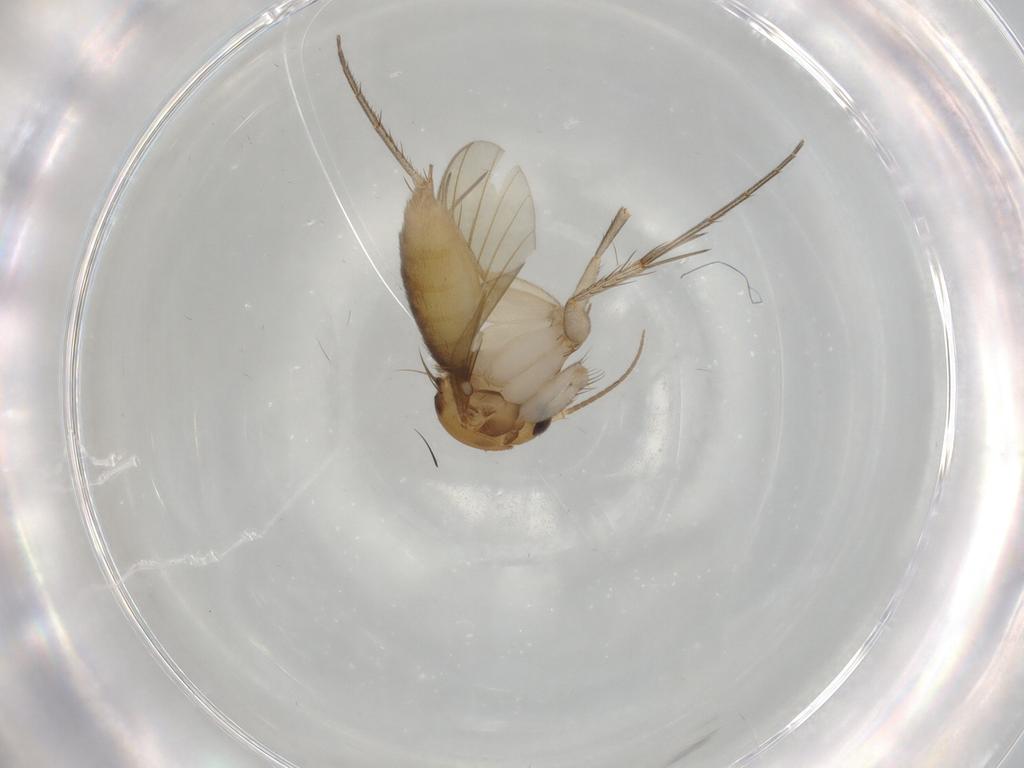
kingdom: Animalia
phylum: Arthropoda
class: Insecta
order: Diptera
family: Mycetophilidae
